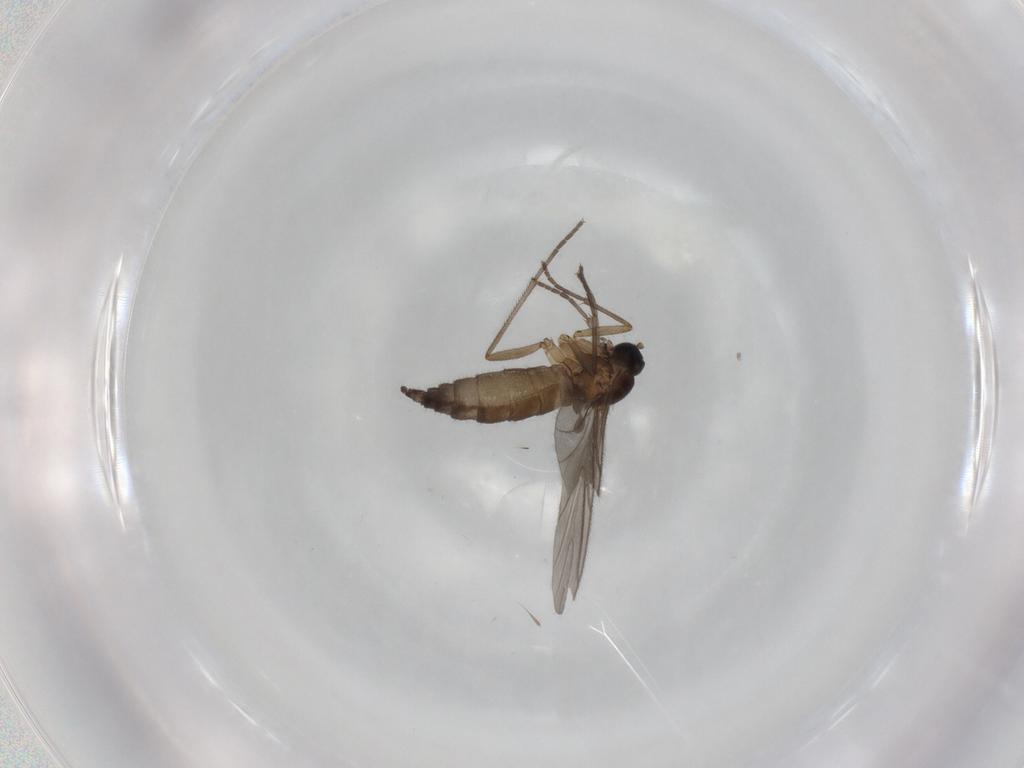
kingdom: Animalia
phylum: Arthropoda
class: Insecta
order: Diptera
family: Sciaridae
